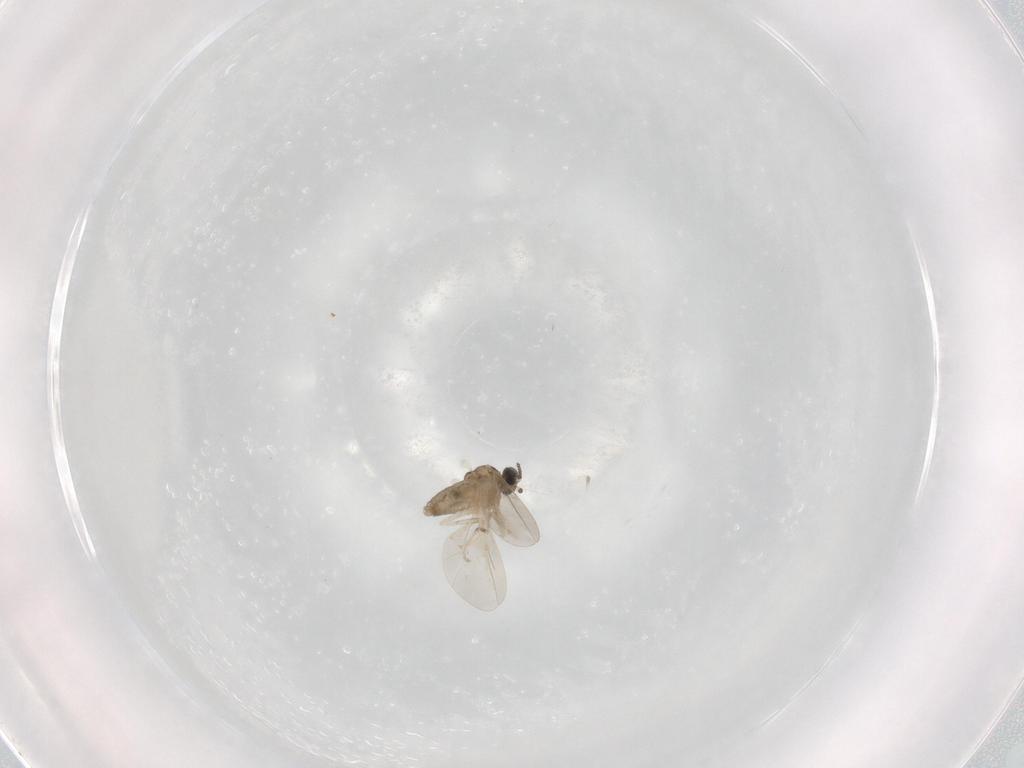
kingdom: Animalia
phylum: Arthropoda
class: Insecta
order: Diptera
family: Cecidomyiidae
